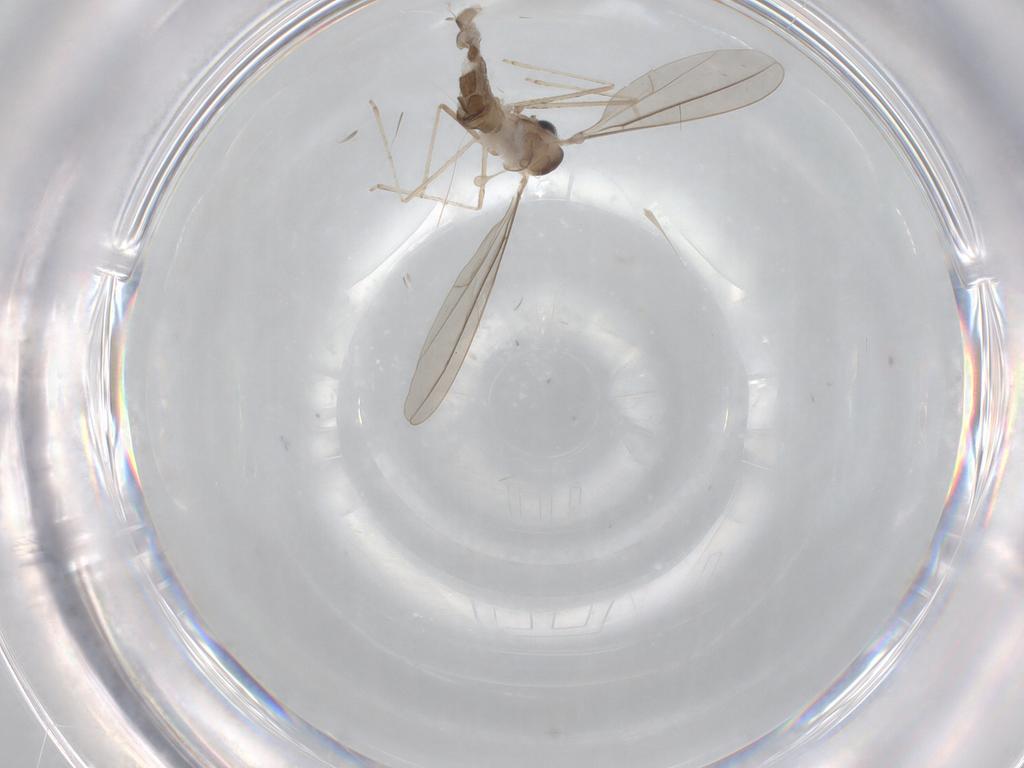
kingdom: Animalia
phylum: Arthropoda
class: Insecta
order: Diptera
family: Cecidomyiidae
